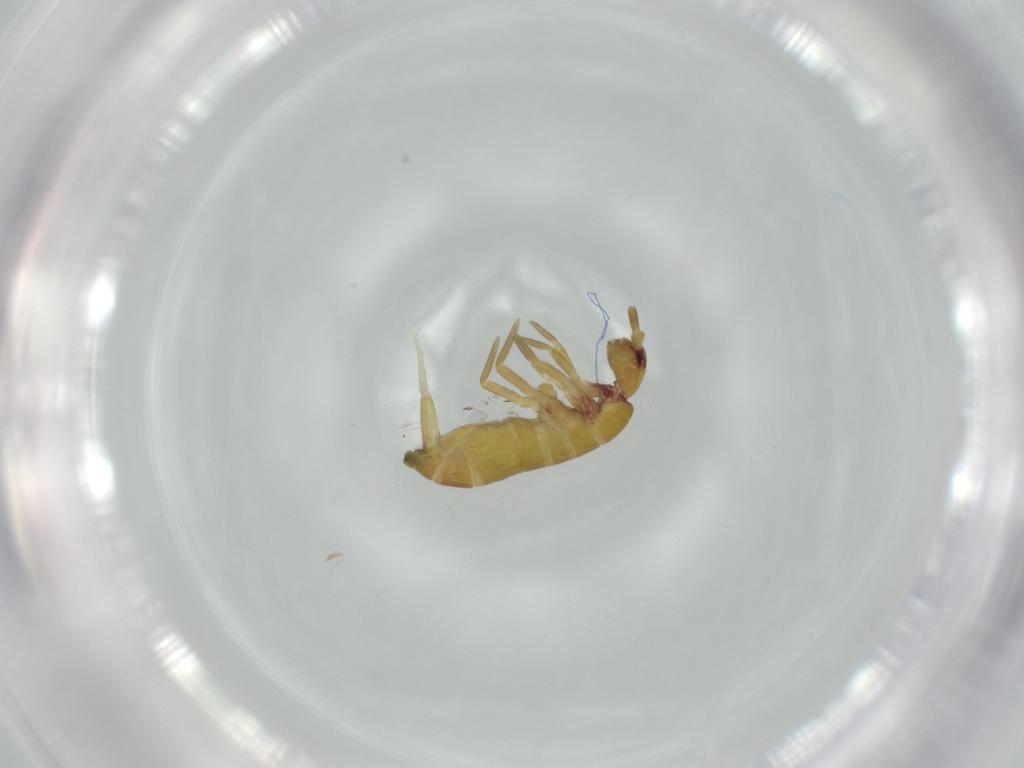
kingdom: Animalia
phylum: Arthropoda
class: Collembola
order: Entomobryomorpha
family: Tomoceridae
